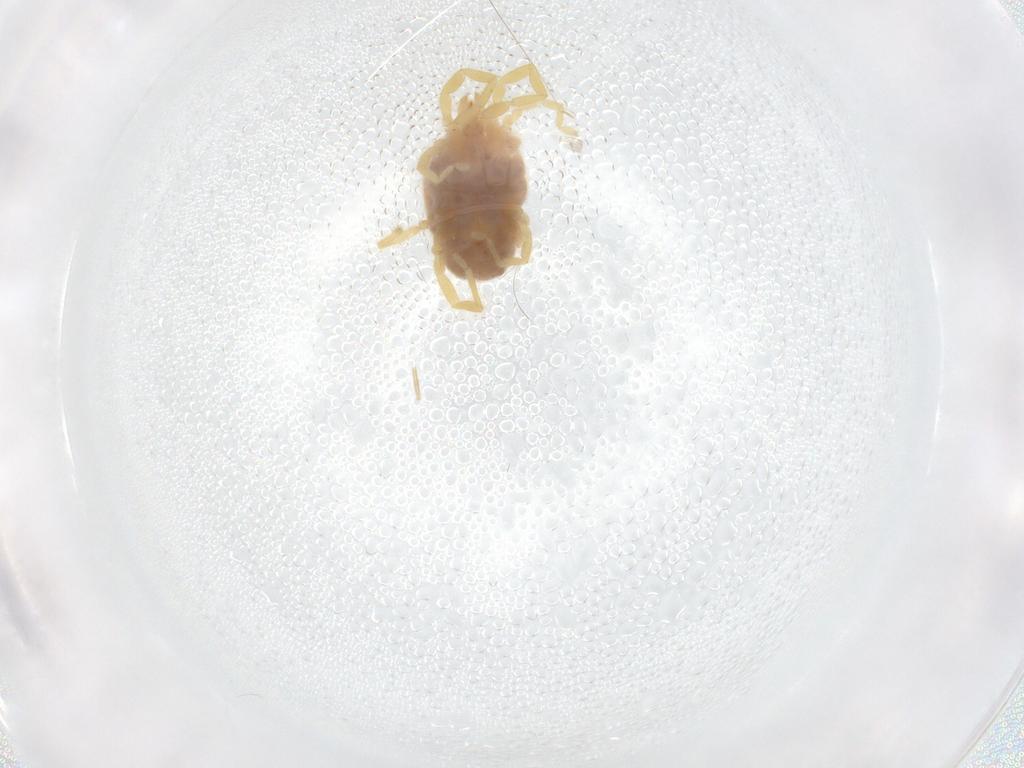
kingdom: Animalia
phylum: Arthropoda
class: Arachnida
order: Trombidiformes
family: Erythraeidae
